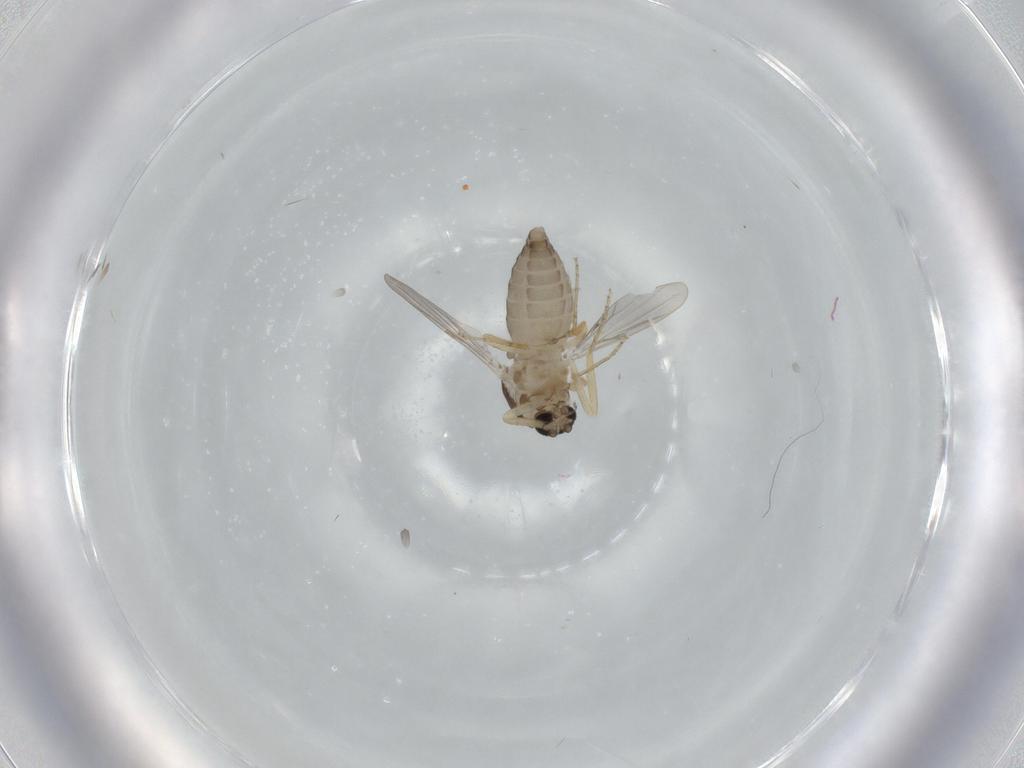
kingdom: Animalia
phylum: Arthropoda
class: Insecta
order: Diptera
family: Ceratopogonidae
